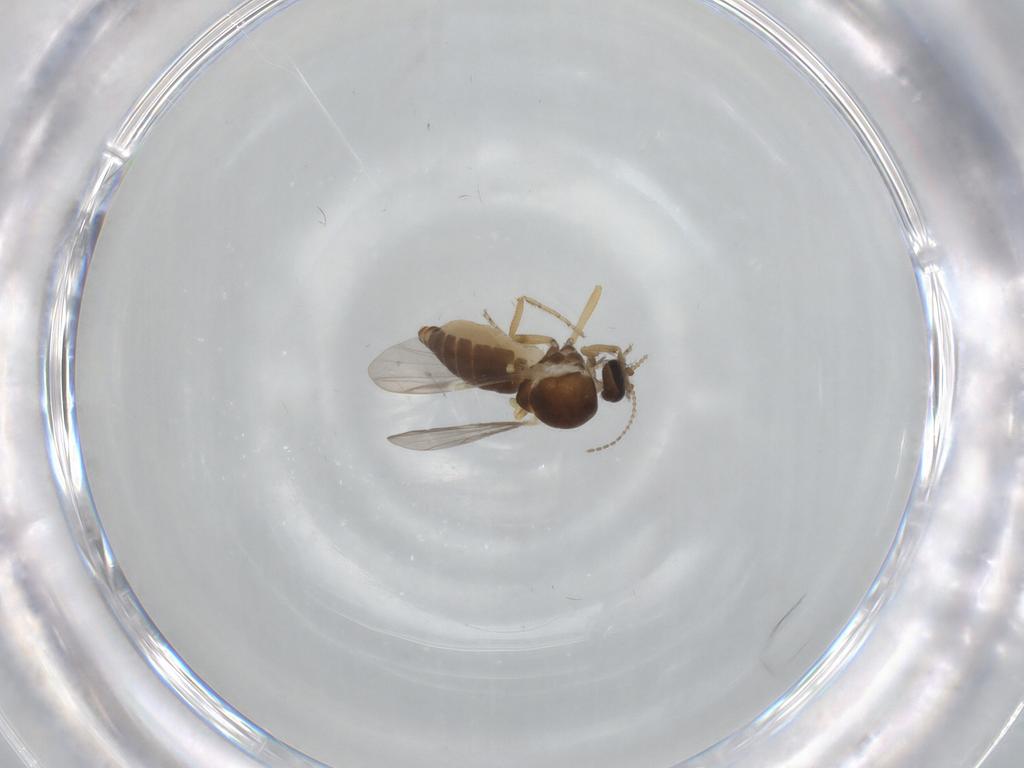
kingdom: Animalia
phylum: Arthropoda
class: Insecta
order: Diptera
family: Ceratopogonidae
